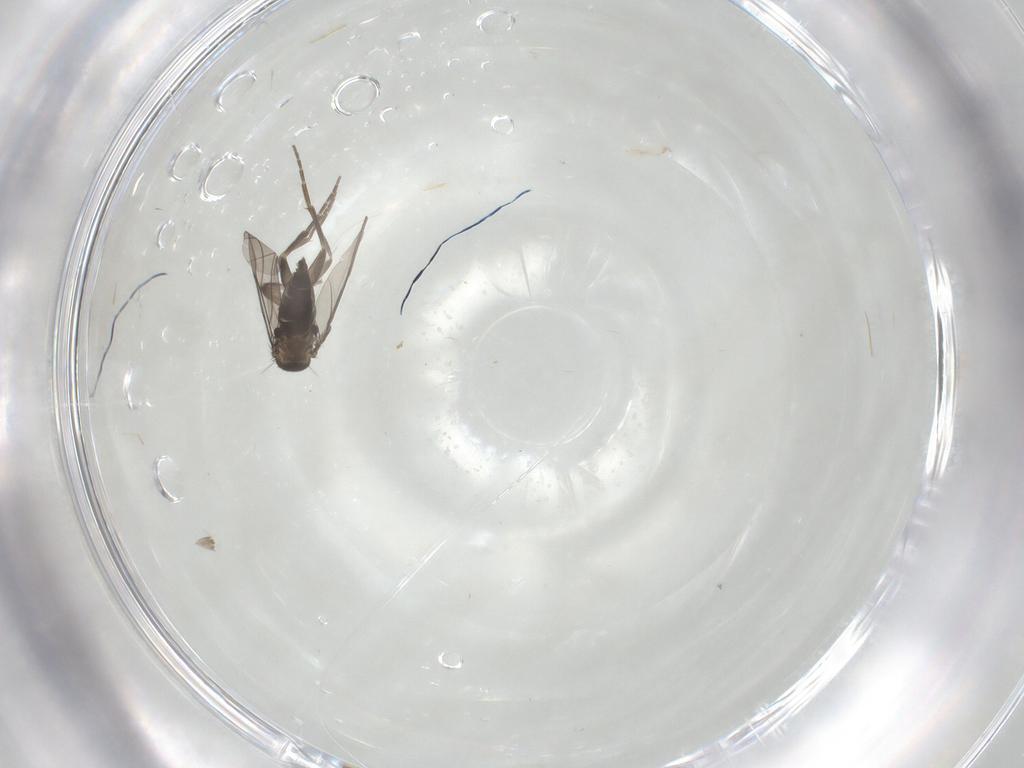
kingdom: Animalia
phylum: Arthropoda
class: Insecta
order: Diptera
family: Phoridae
